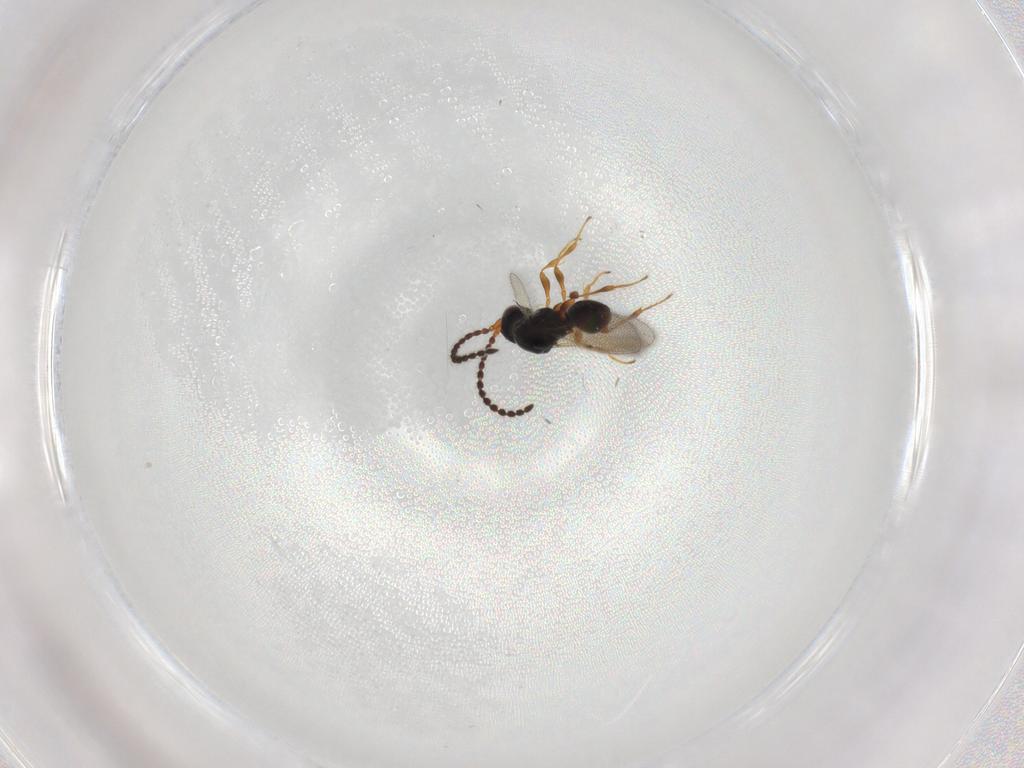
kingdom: Animalia
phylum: Arthropoda
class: Insecta
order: Hymenoptera
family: Diapriidae
